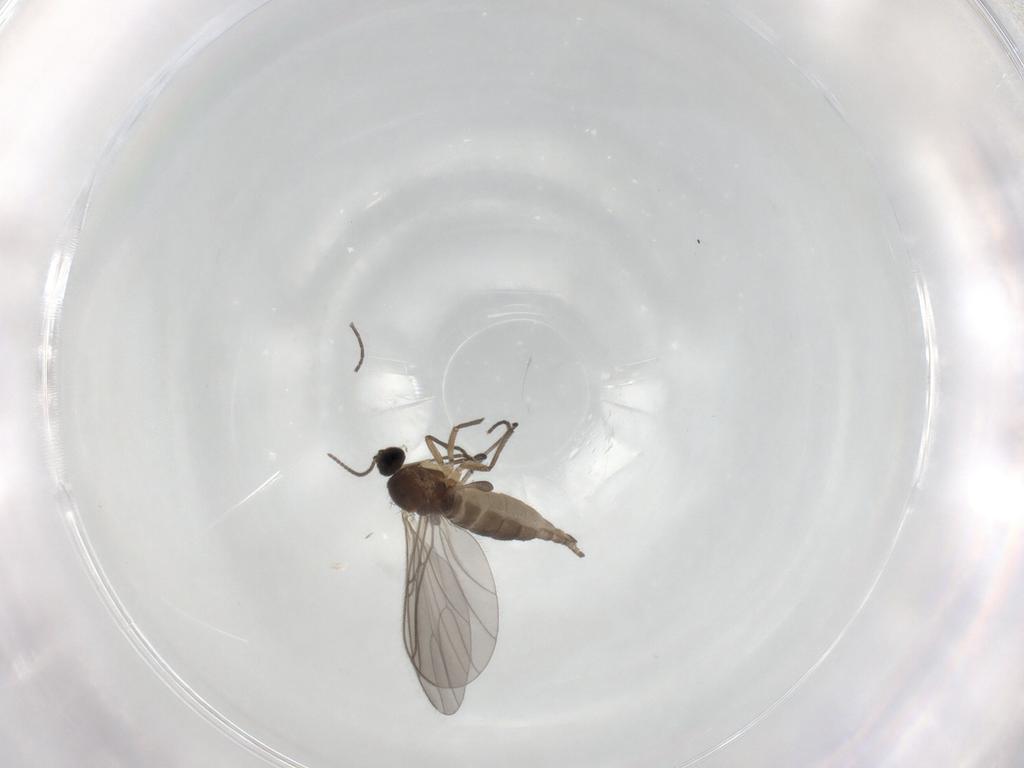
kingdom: Animalia
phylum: Arthropoda
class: Insecta
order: Diptera
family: Sciaridae
